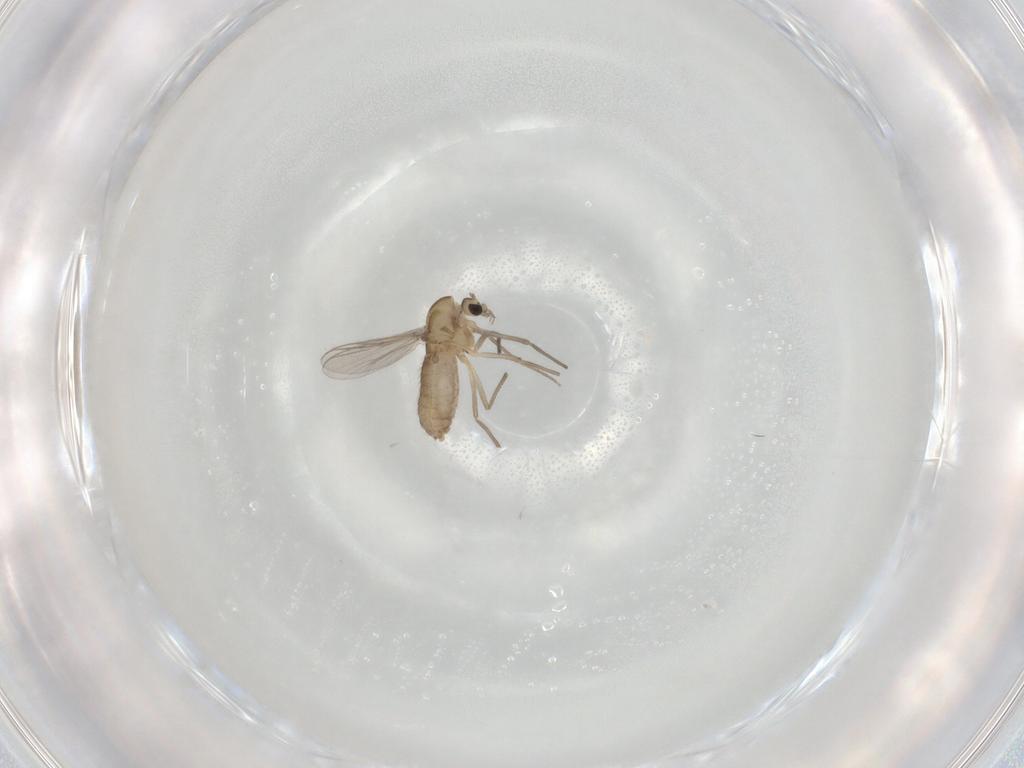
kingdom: Animalia
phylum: Arthropoda
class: Insecta
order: Diptera
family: Chironomidae
